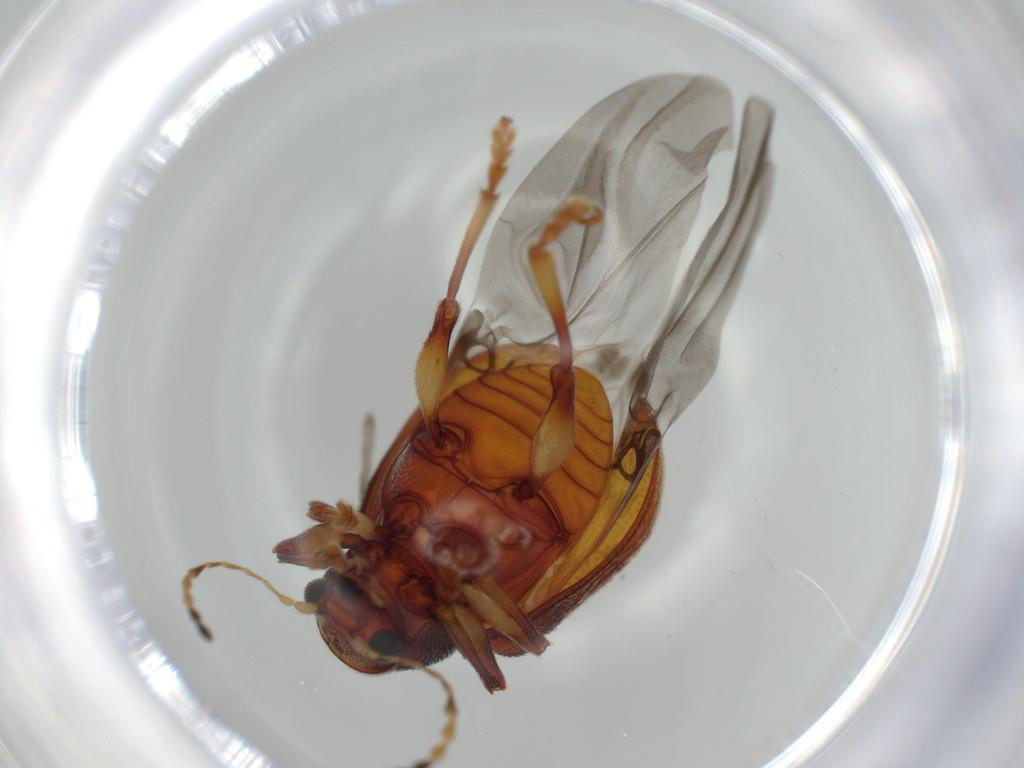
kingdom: Animalia
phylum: Arthropoda
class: Insecta
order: Coleoptera
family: Chrysomelidae
